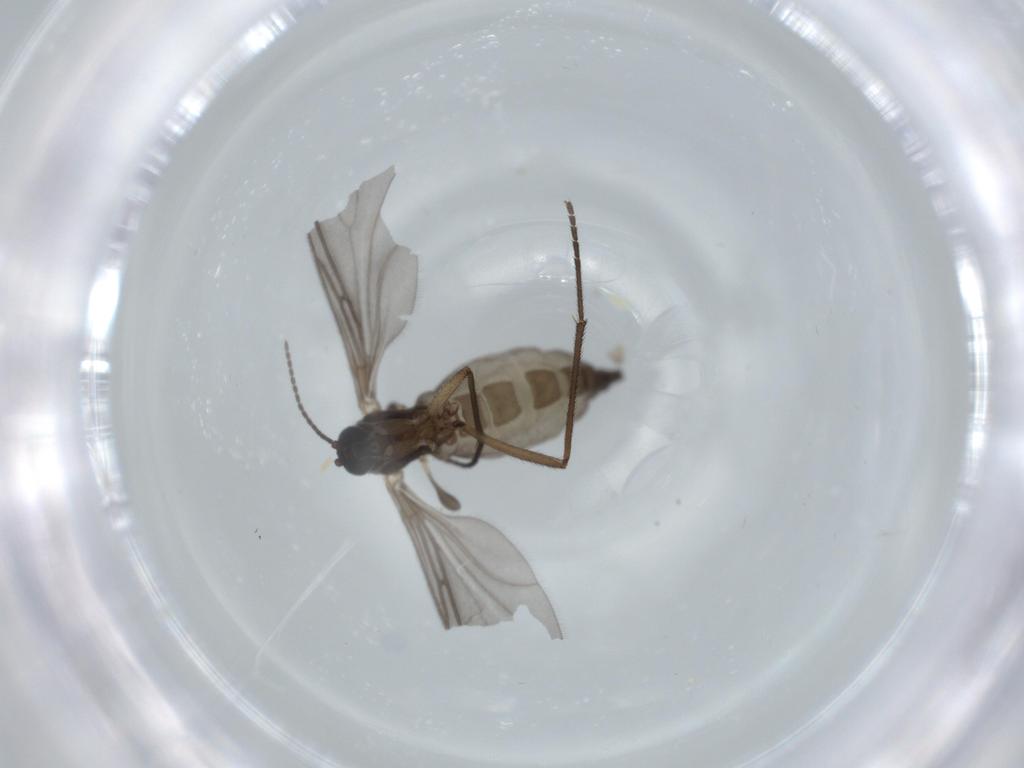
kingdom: Animalia
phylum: Arthropoda
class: Insecta
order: Diptera
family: Sciaridae
